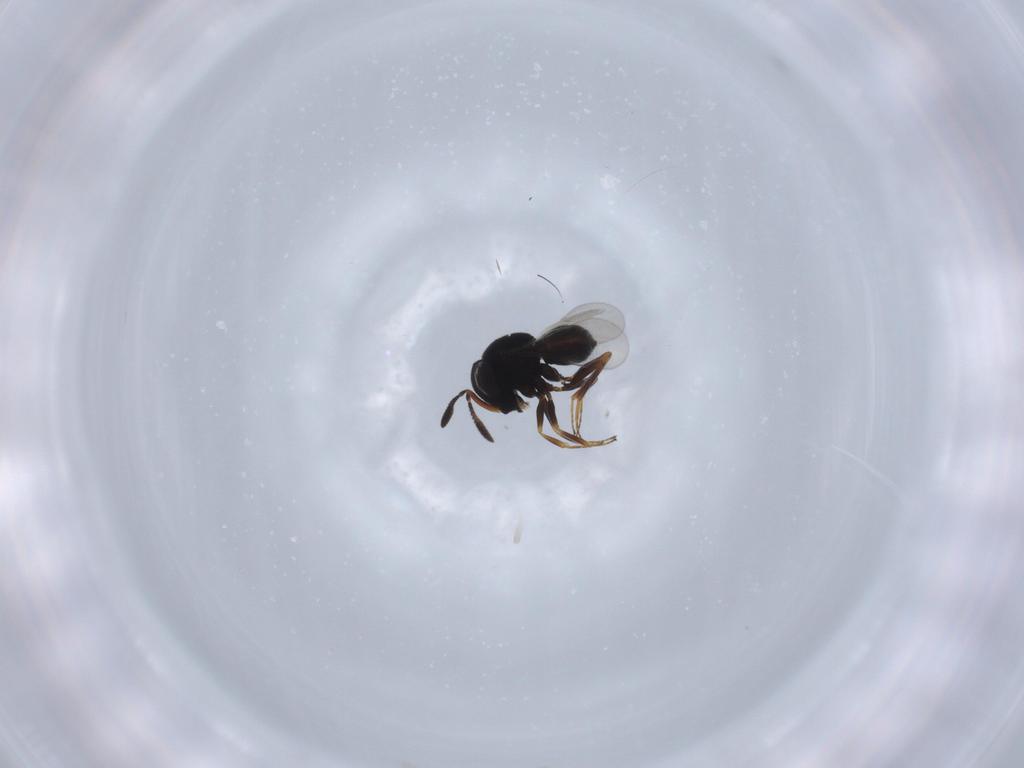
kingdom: Animalia
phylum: Arthropoda
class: Insecta
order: Hymenoptera
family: Scelionidae
